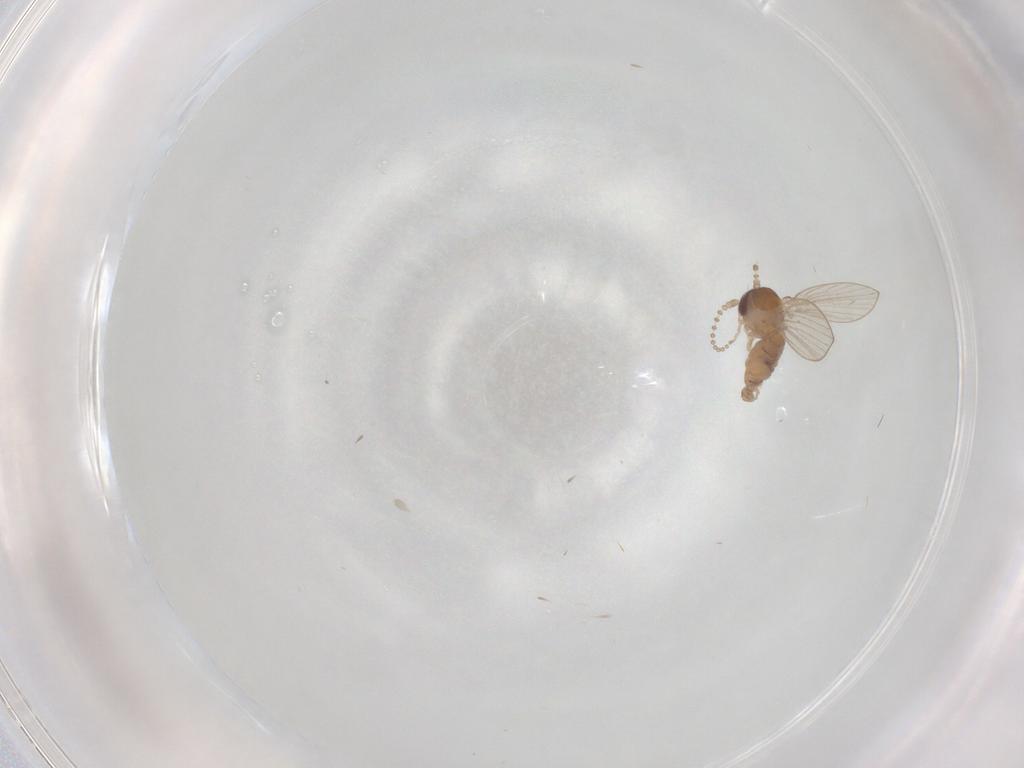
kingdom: Animalia
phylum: Arthropoda
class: Insecta
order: Diptera
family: Psychodidae
